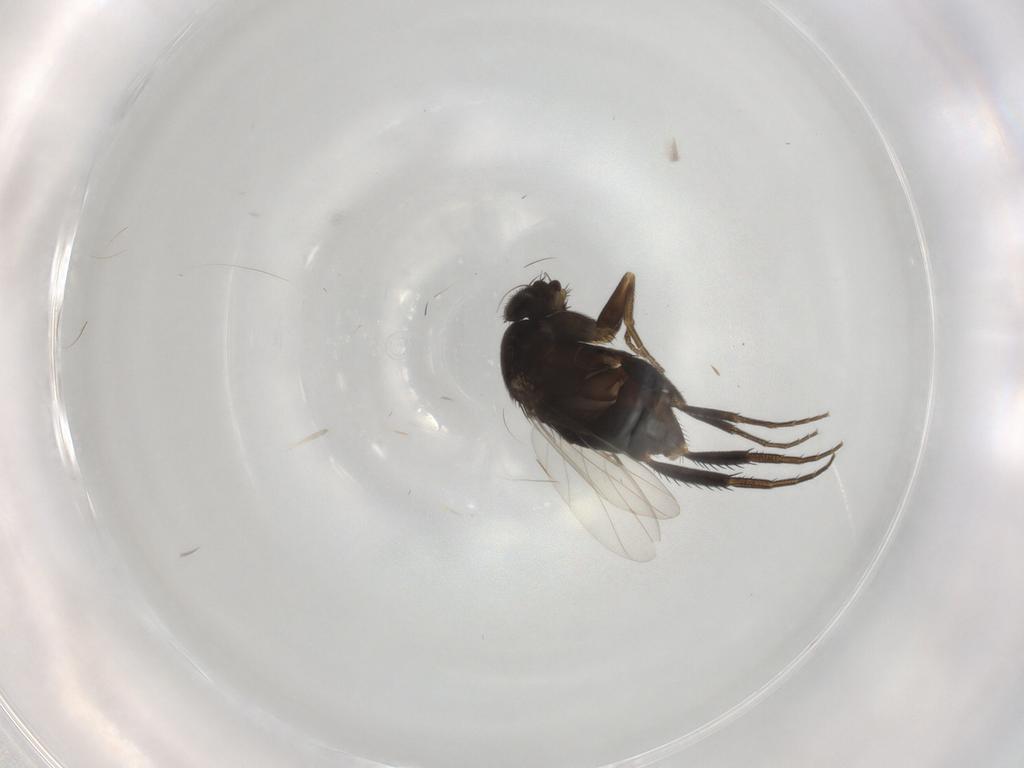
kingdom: Animalia
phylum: Arthropoda
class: Insecta
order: Diptera
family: Phoridae
